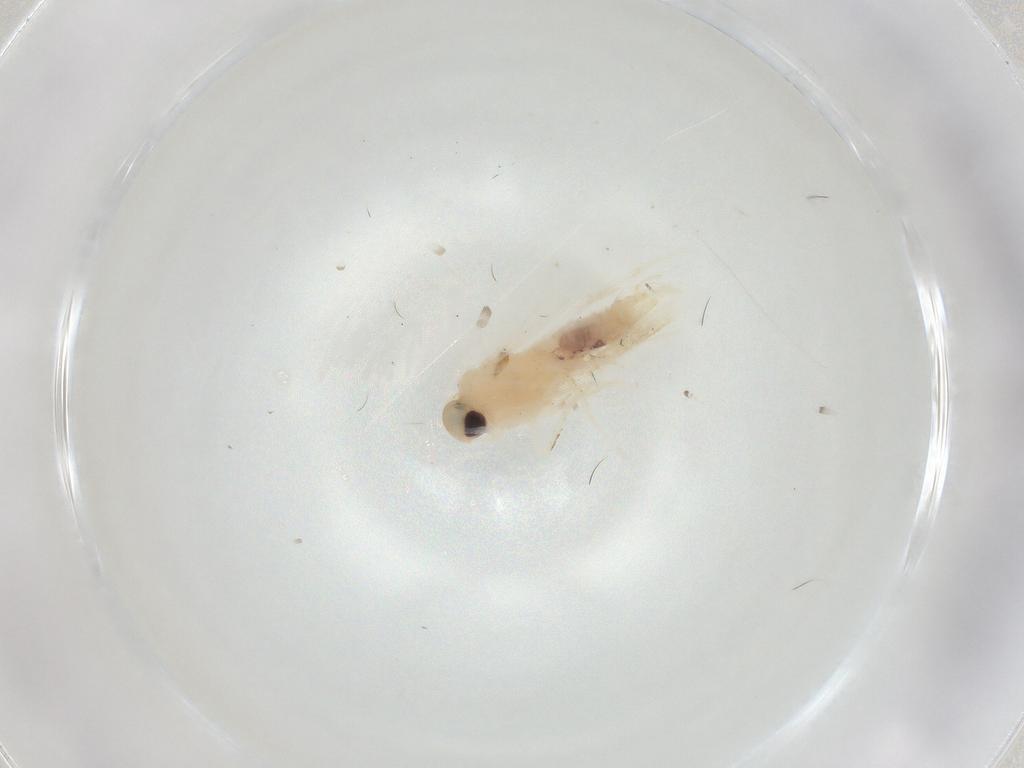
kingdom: Animalia
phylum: Arthropoda
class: Insecta
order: Lepidoptera
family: Gelechiidae
